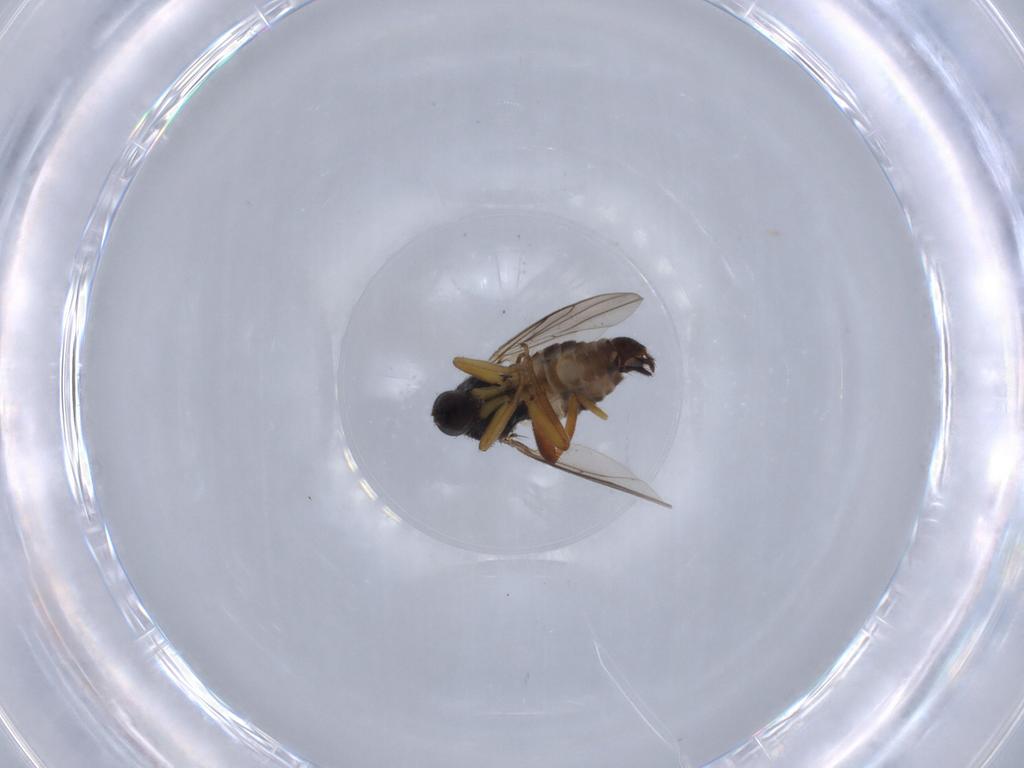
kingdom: Animalia
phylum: Arthropoda
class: Insecta
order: Diptera
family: Hybotidae
